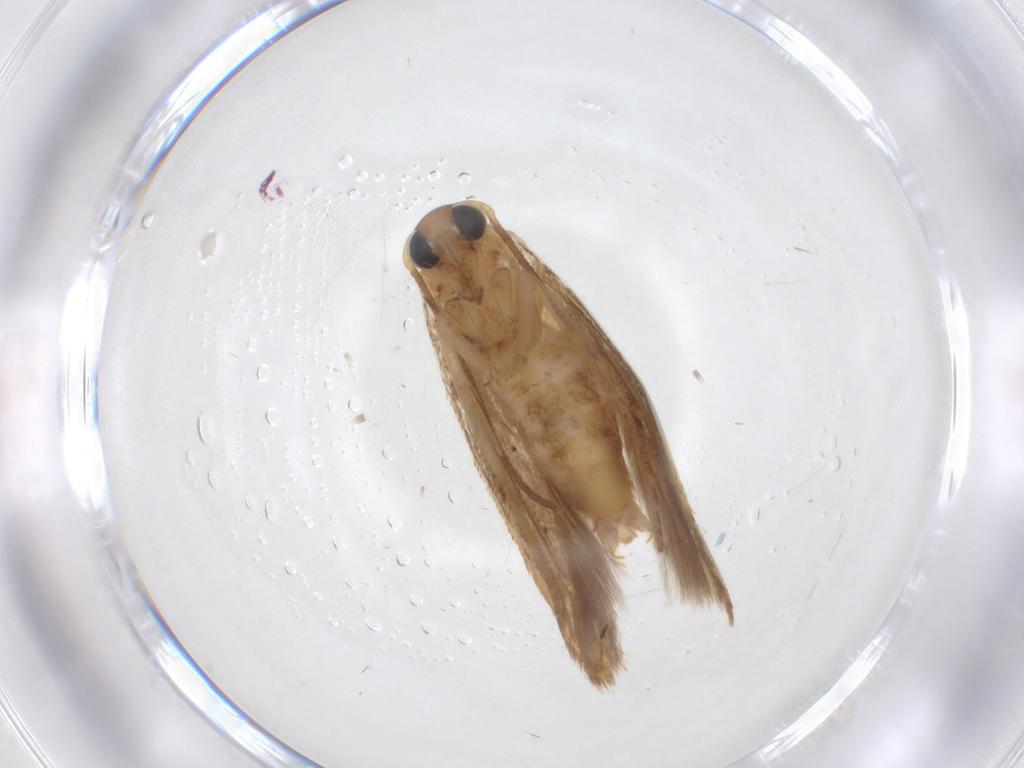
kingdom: Animalia
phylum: Arthropoda
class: Insecta
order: Lepidoptera
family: Blastobasidae
